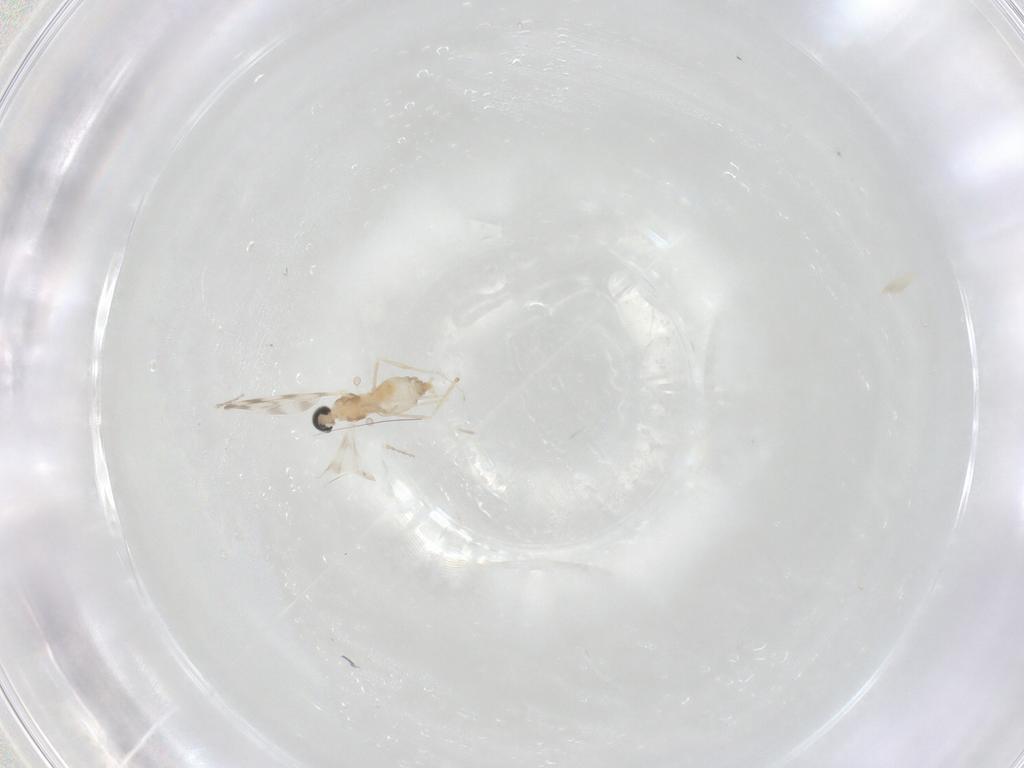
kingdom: Animalia
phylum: Arthropoda
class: Insecta
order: Diptera
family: Cecidomyiidae
